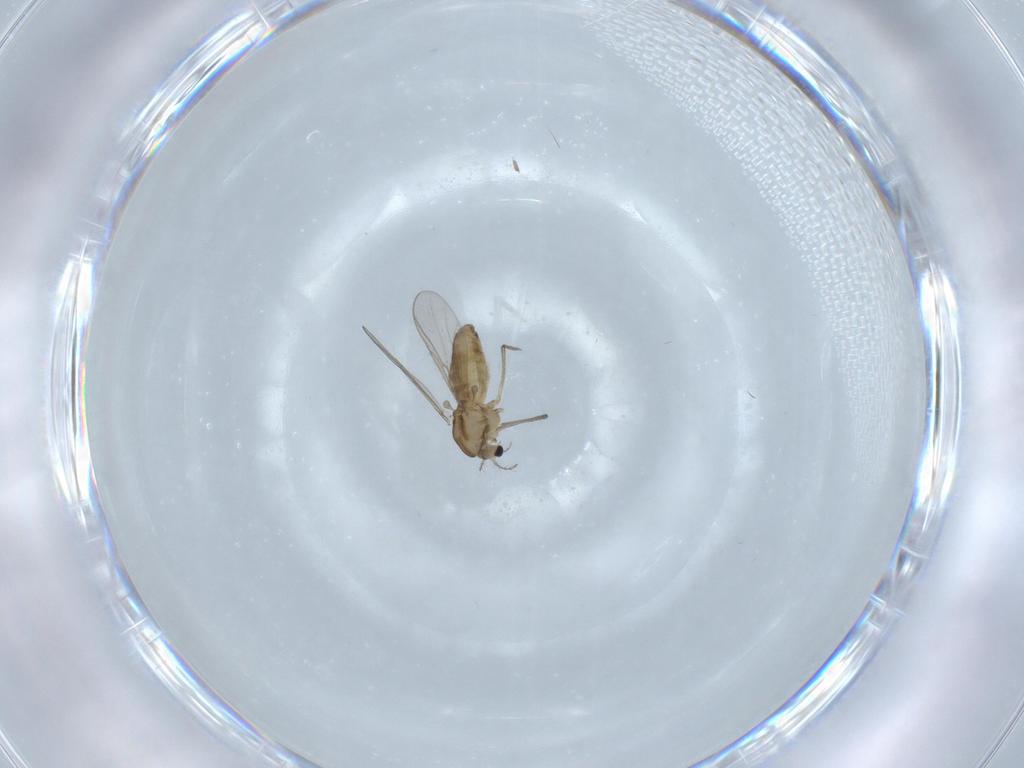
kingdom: Animalia
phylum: Arthropoda
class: Insecta
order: Diptera
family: Chironomidae
